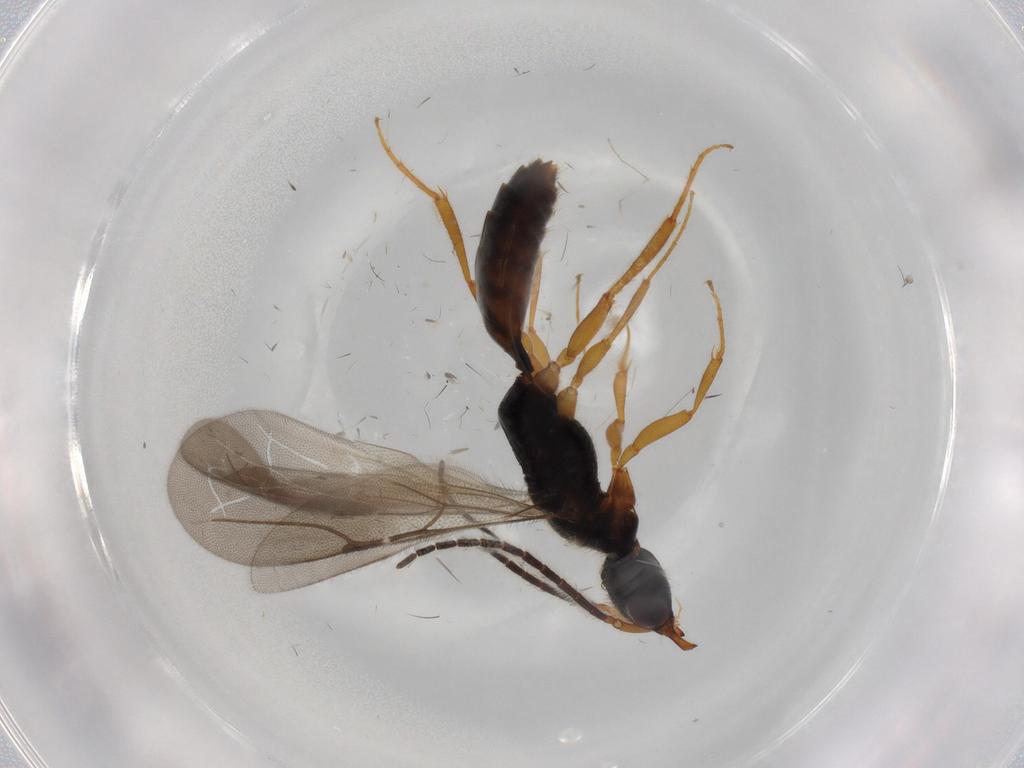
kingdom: Animalia
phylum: Arthropoda
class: Insecta
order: Hymenoptera
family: Bethylidae
